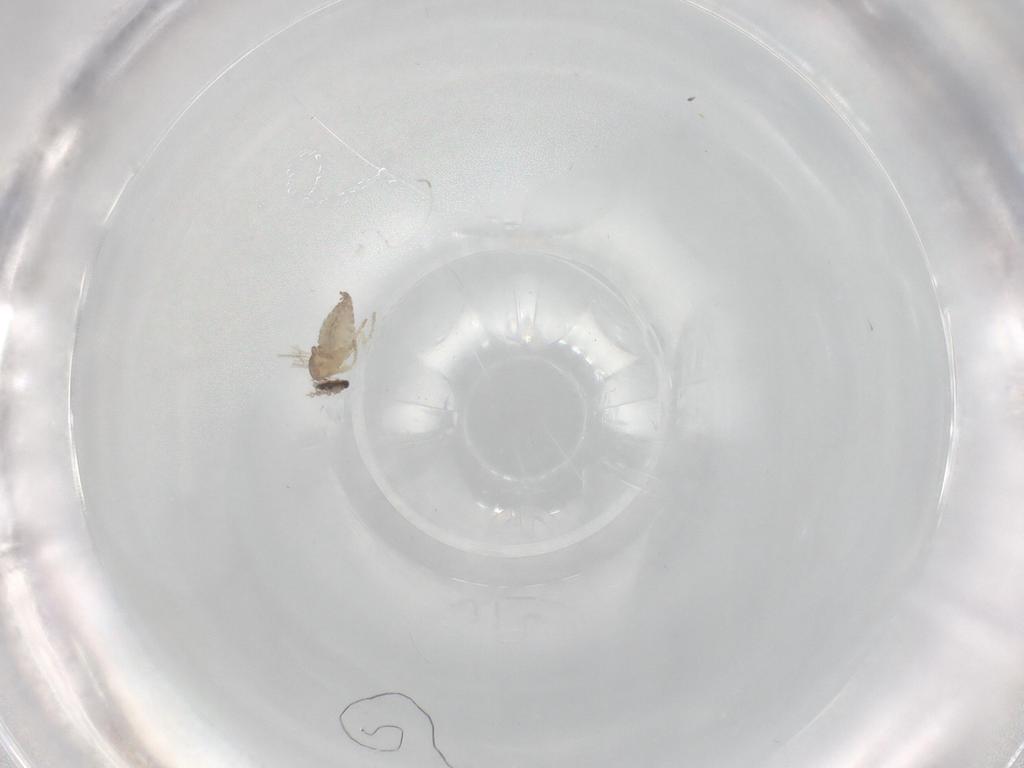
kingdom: Animalia
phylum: Arthropoda
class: Insecta
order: Diptera
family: Cecidomyiidae
